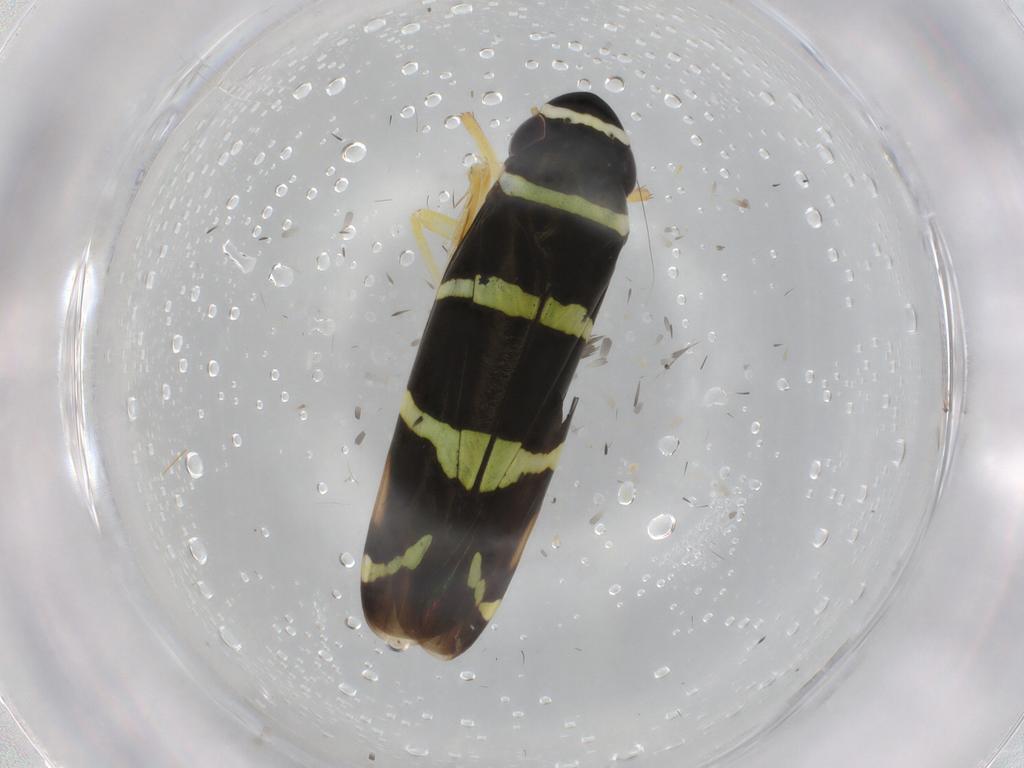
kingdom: Animalia
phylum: Arthropoda
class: Insecta
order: Hemiptera
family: Cicadellidae
